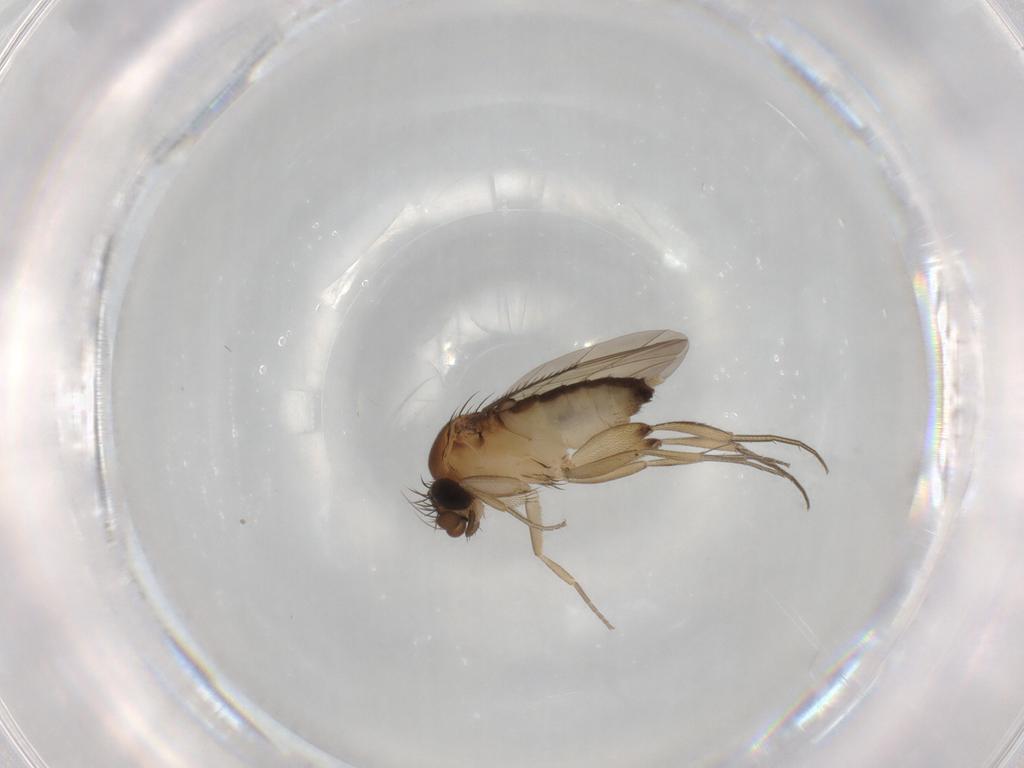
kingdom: Animalia
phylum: Arthropoda
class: Insecta
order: Diptera
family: Phoridae
